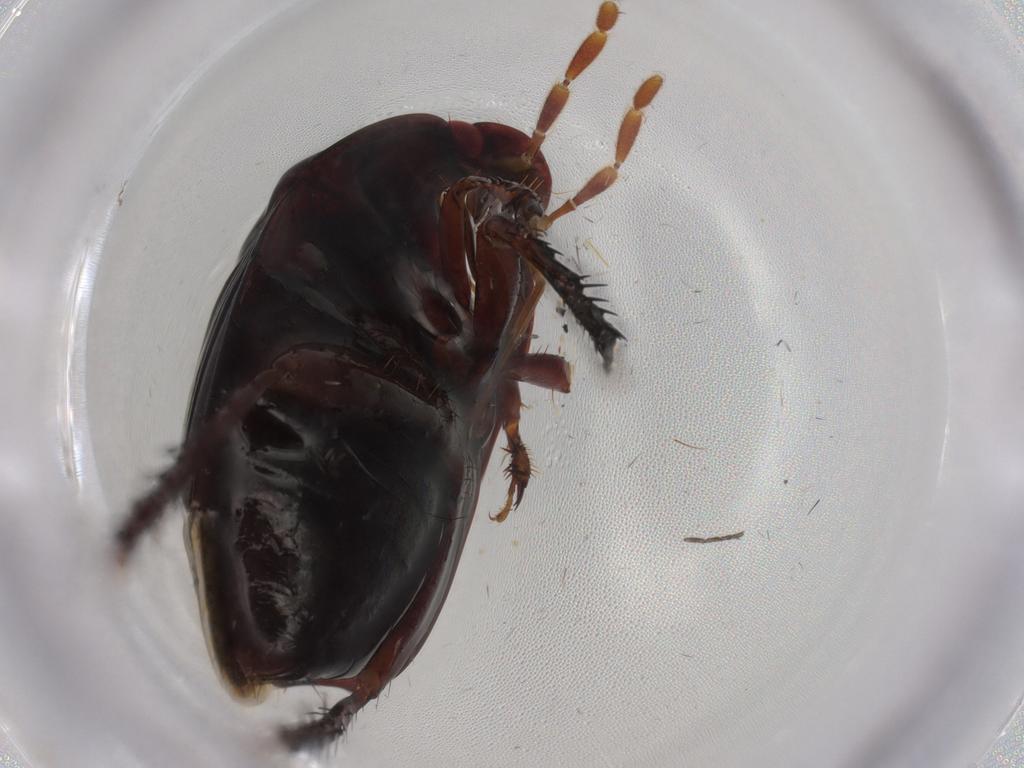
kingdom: Animalia
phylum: Arthropoda
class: Insecta
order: Hemiptera
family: Cydnidae
